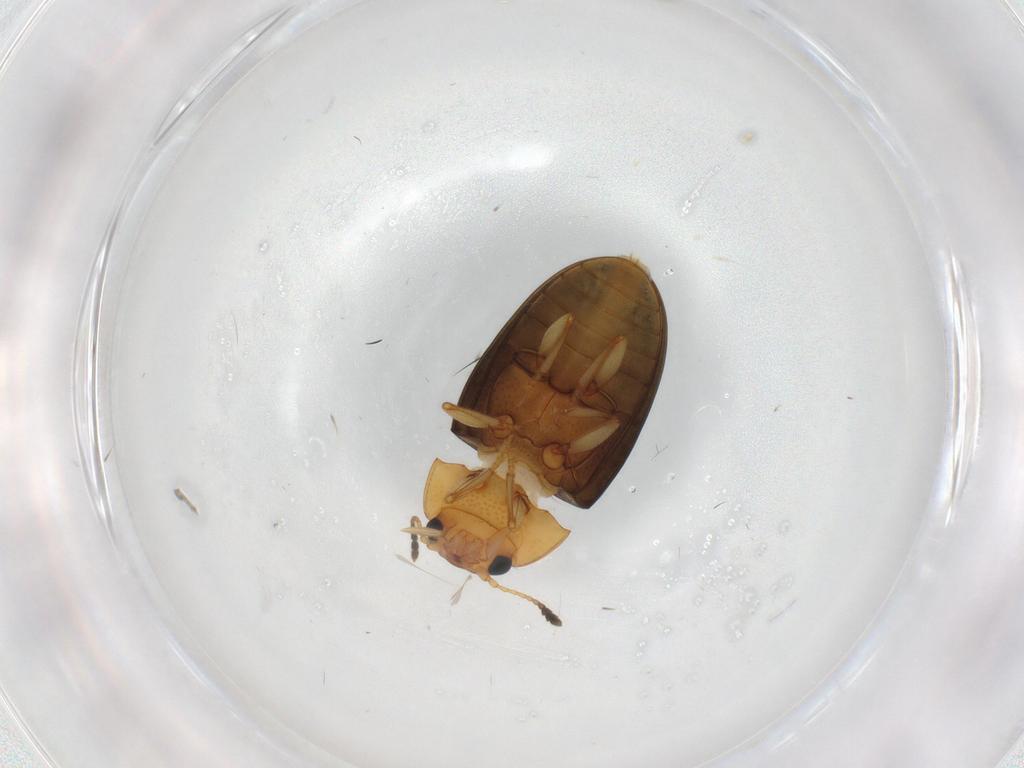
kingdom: Animalia
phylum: Arthropoda
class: Insecta
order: Coleoptera
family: Erotylidae
